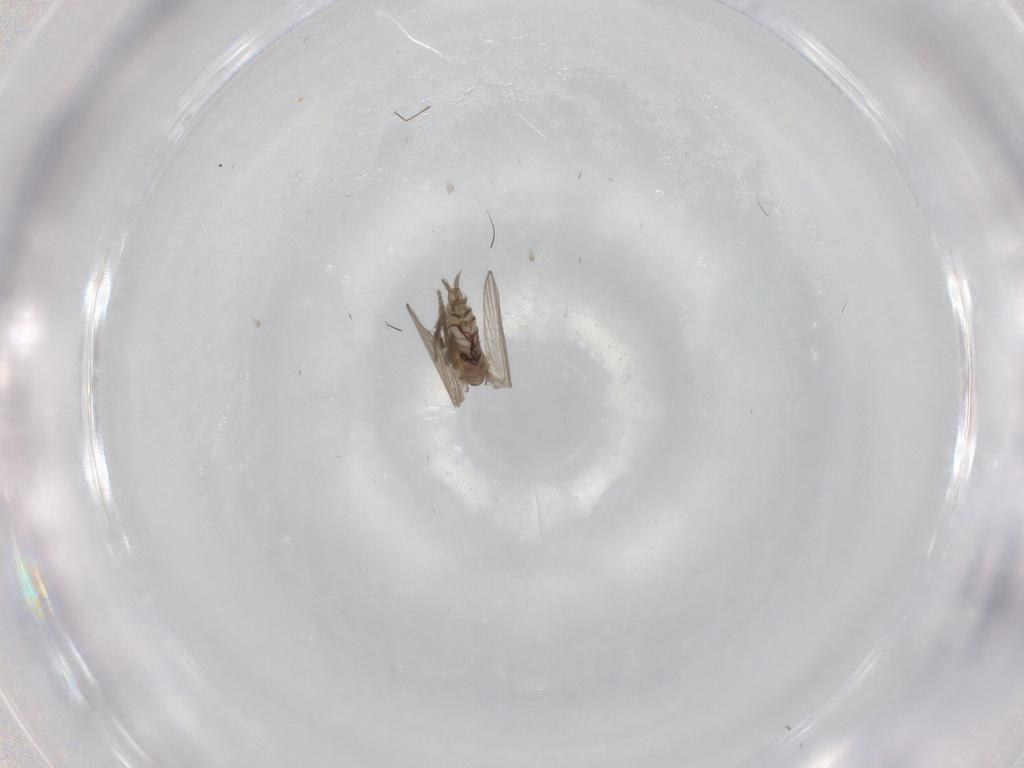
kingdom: Animalia
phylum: Arthropoda
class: Insecta
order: Diptera
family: Psychodidae
